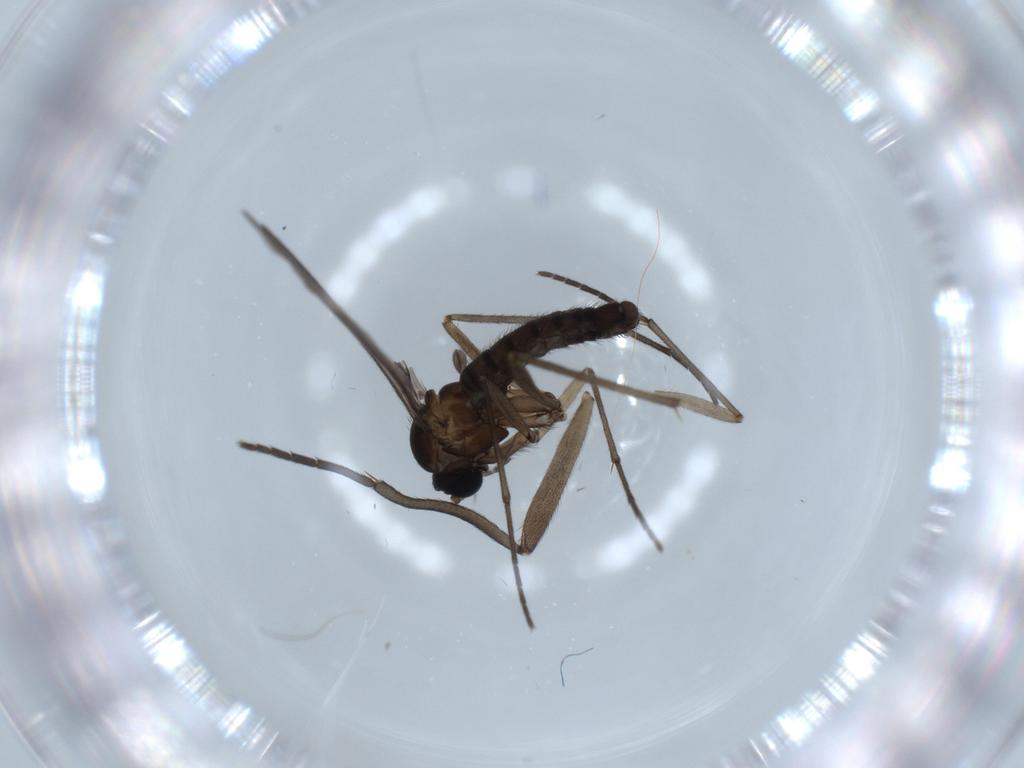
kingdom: Animalia
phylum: Arthropoda
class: Insecta
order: Diptera
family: Sciaridae
